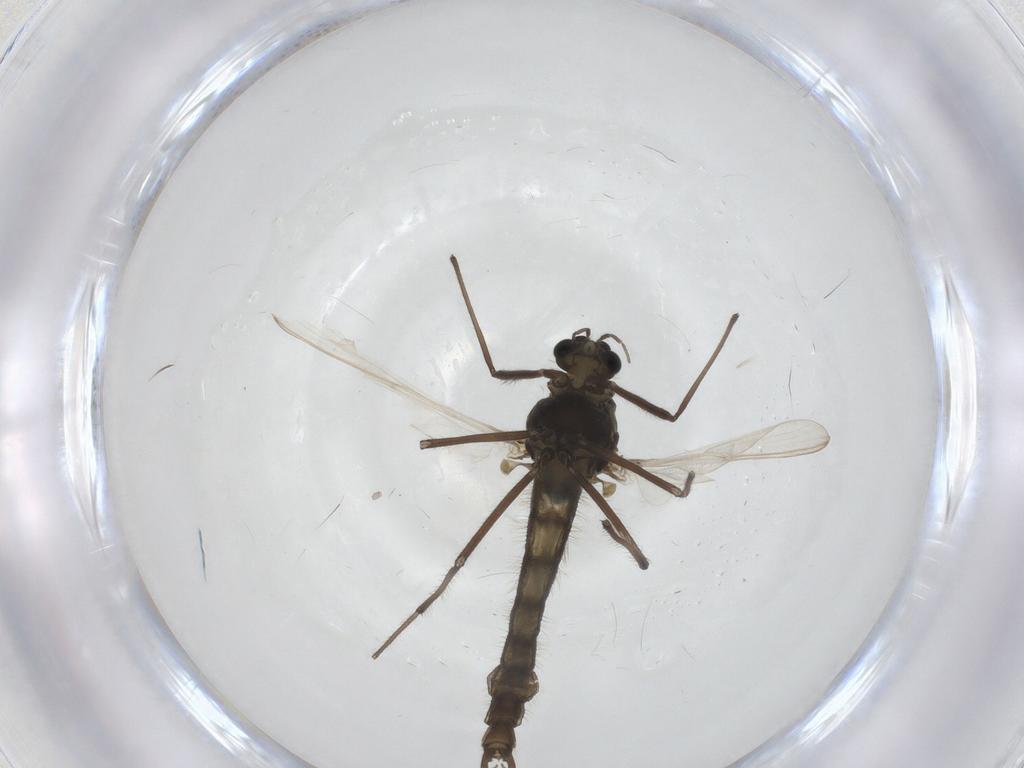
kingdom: Animalia
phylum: Arthropoda
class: Insecta
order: Diptera
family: Chironomidae
